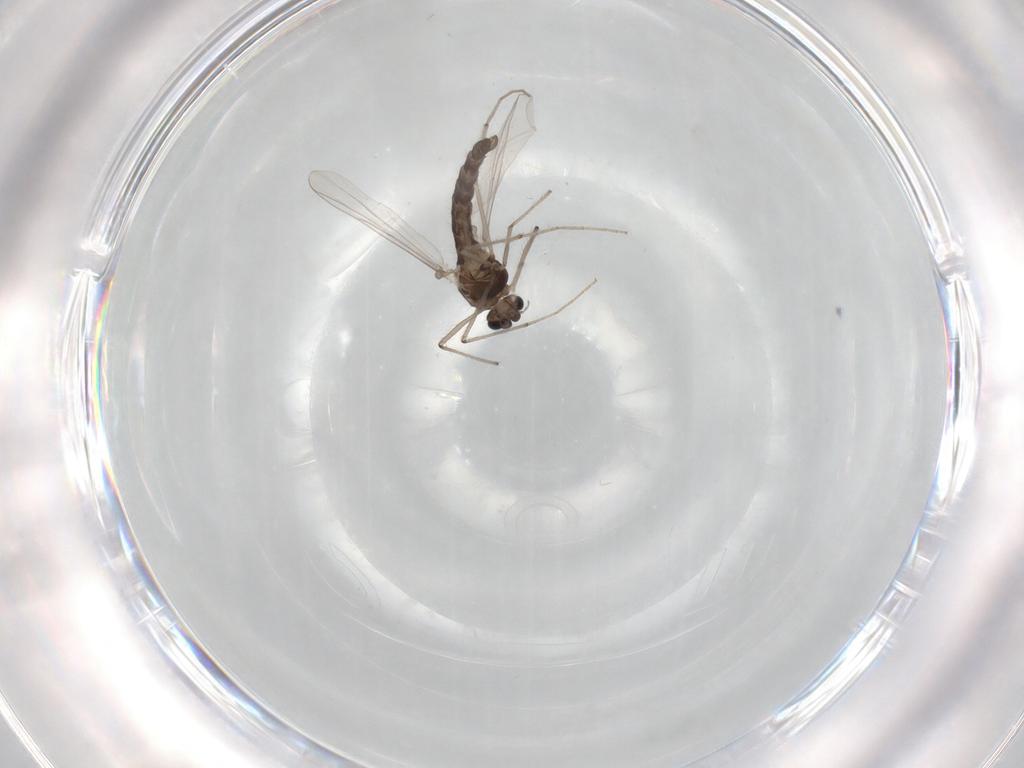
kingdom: Animalia
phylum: Arthropoda
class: Insecta
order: Diptera
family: Chironomidae
